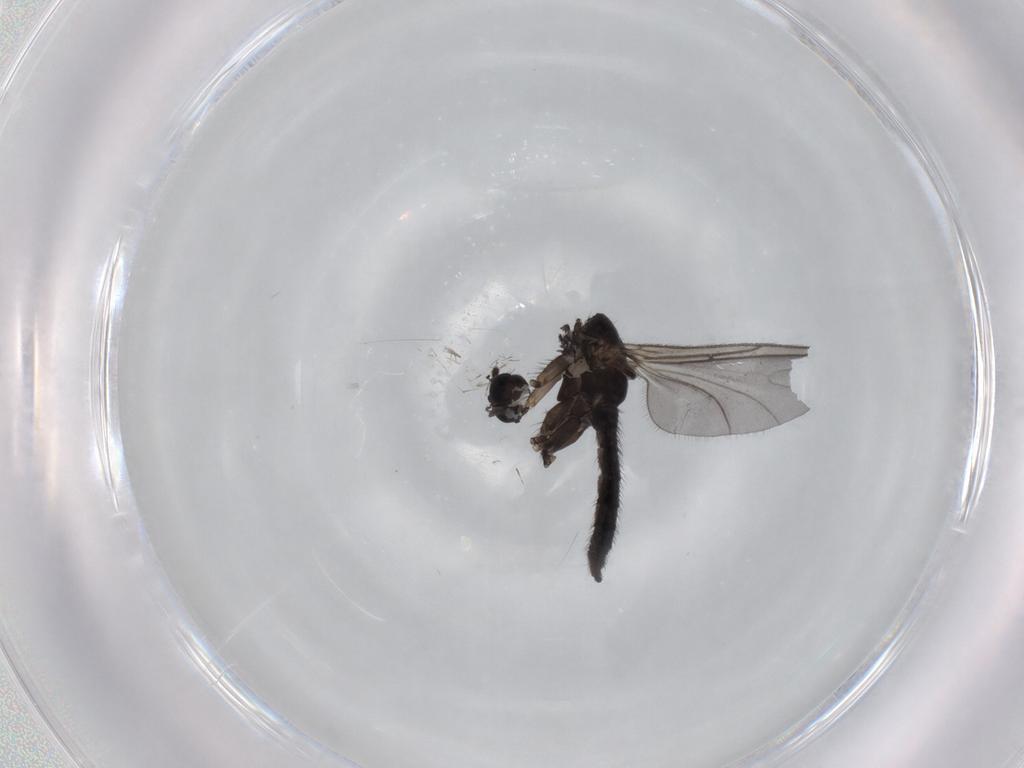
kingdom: Animalia
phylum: Arthropoda
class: Insecta
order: Diptera
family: Sciaridae
